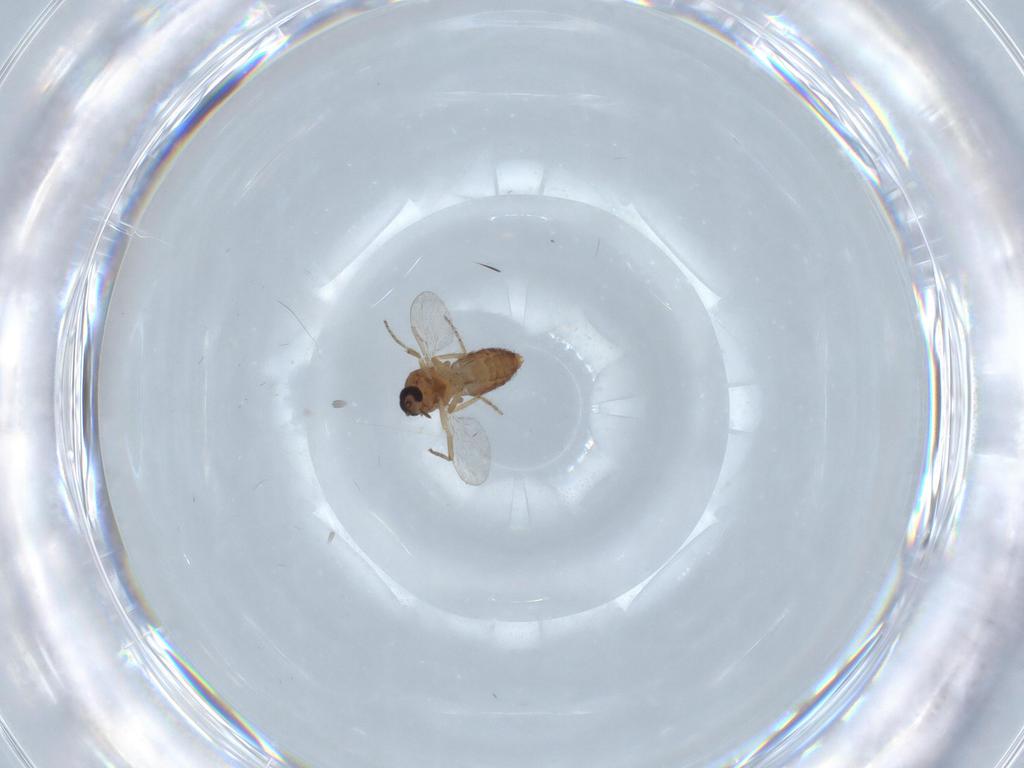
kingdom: Animalia
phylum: Arthropoda
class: Insecta
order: Diptera
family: Ceratopogonidae
